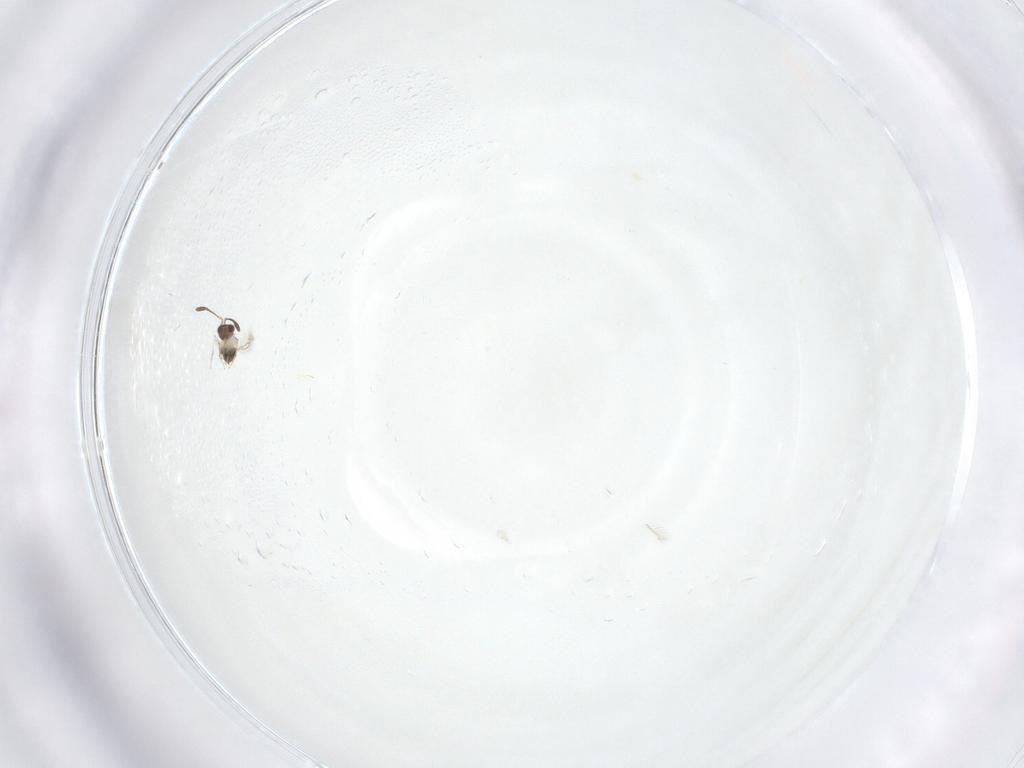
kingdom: Animalia
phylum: Arthropoda
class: Insecta
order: Hymenoptera
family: Mymaridae
